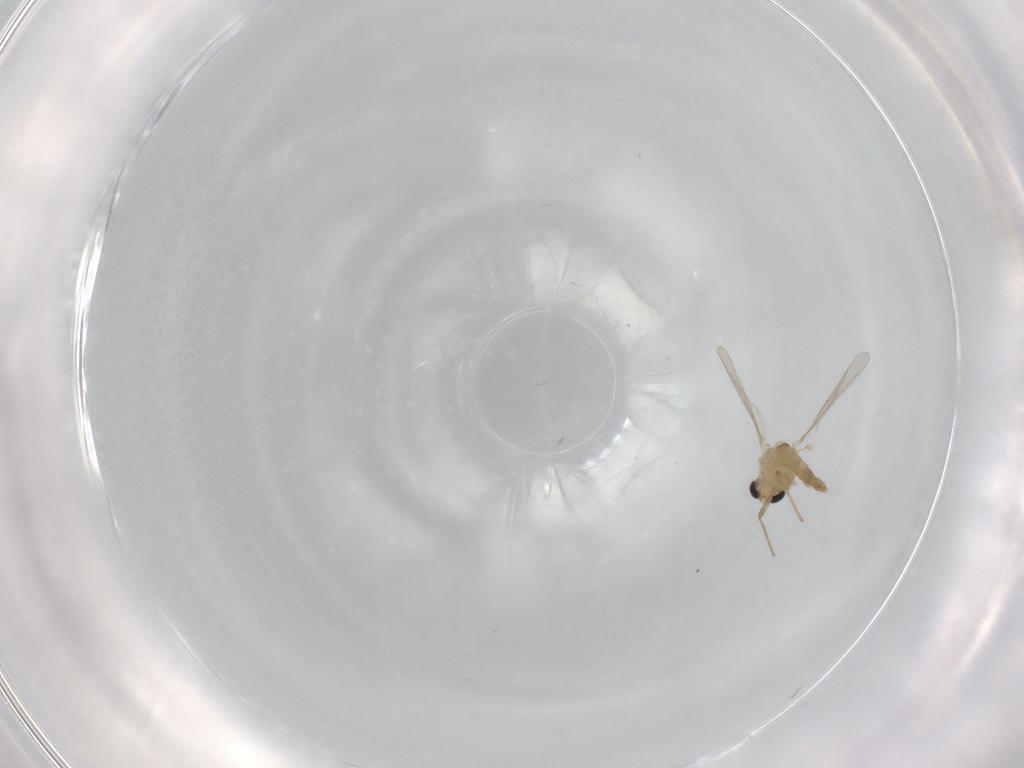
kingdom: Animalia
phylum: Arthropoda
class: Insecta
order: Diptera
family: Chironomidae
